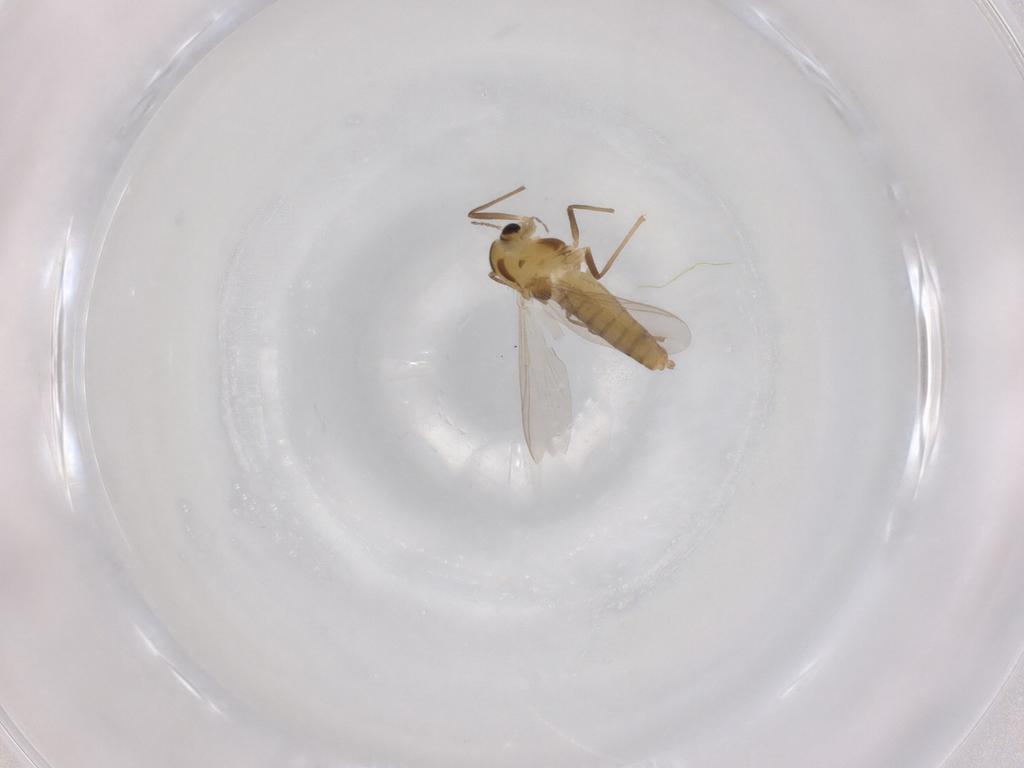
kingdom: Animalia
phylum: Arthropoda
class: Insecta
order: Diptera
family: Chironomidae
